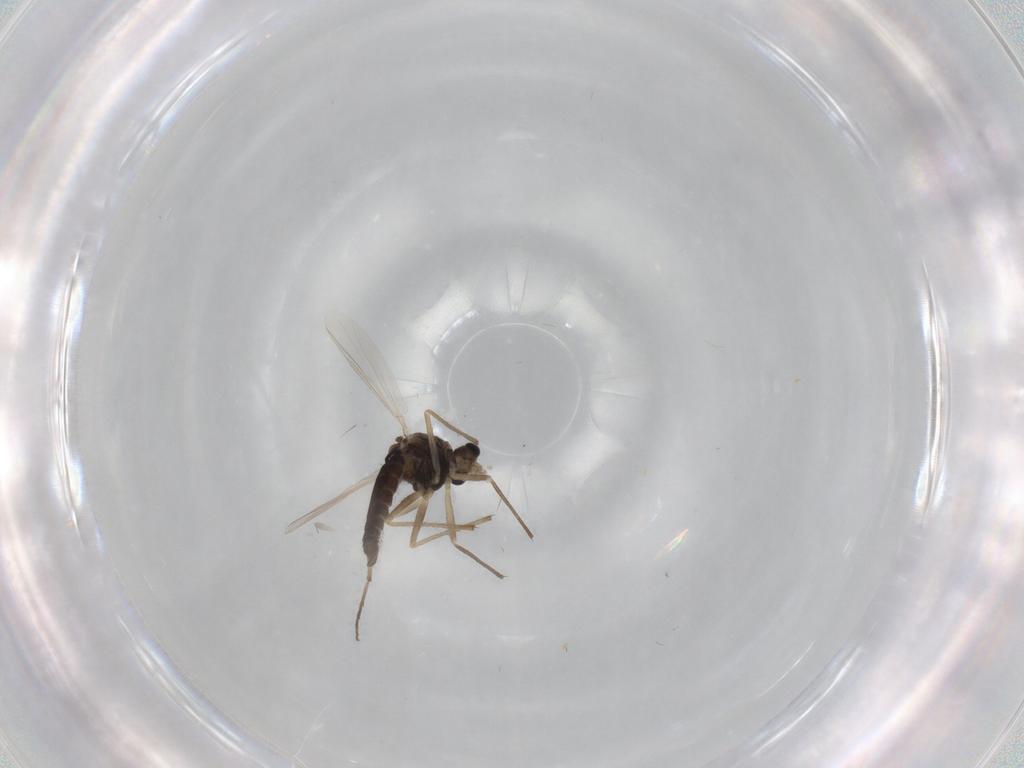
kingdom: Animalia
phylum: Arthropoda
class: Insecta
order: Diptera
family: Chironomidae
